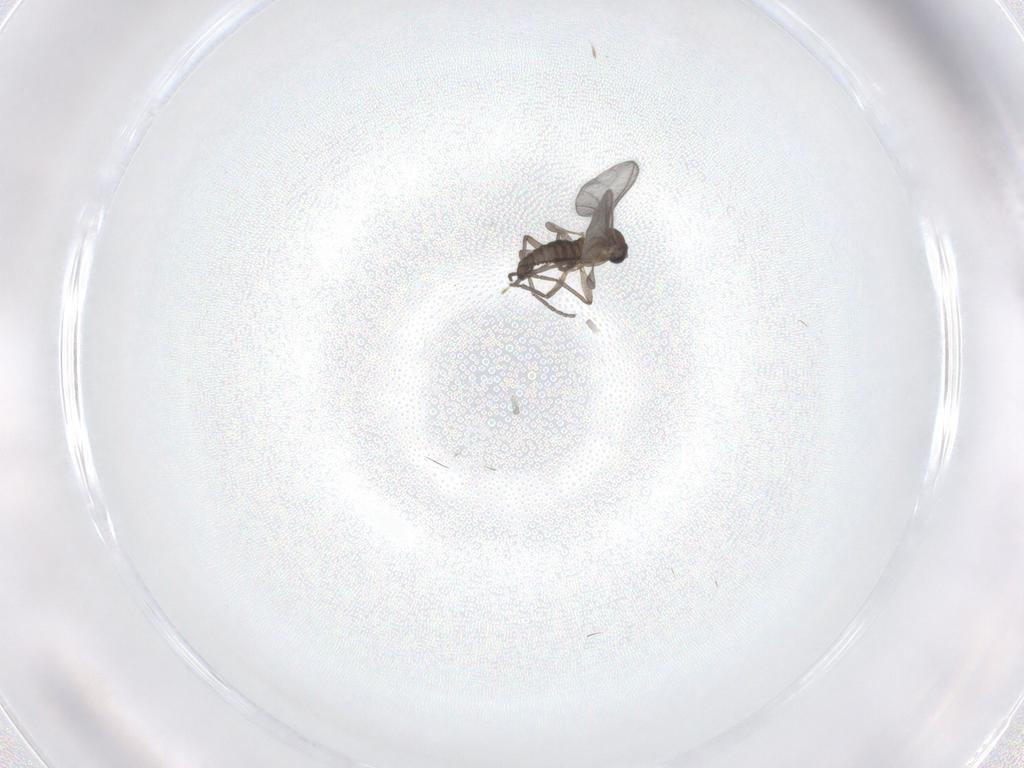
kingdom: Animalia
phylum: Arthropoda
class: Insecta
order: Diptera
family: Sciaridae
